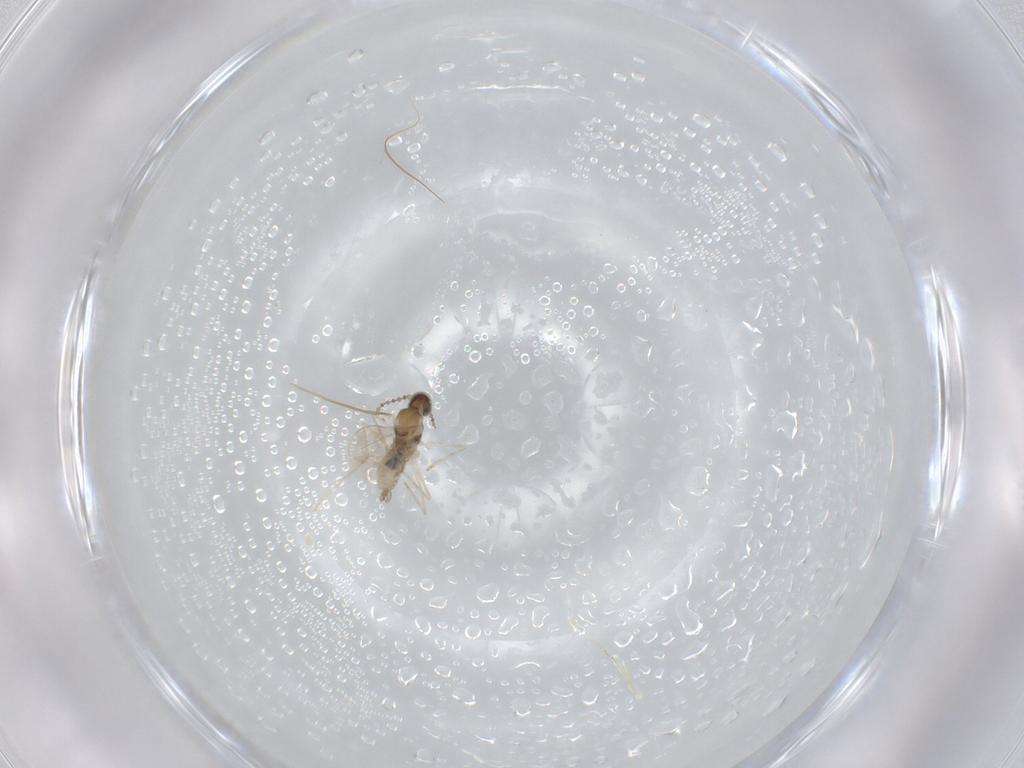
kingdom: Animalia
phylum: Arthropoda
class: Insecta
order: Diptera
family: Cecidomyiidae
